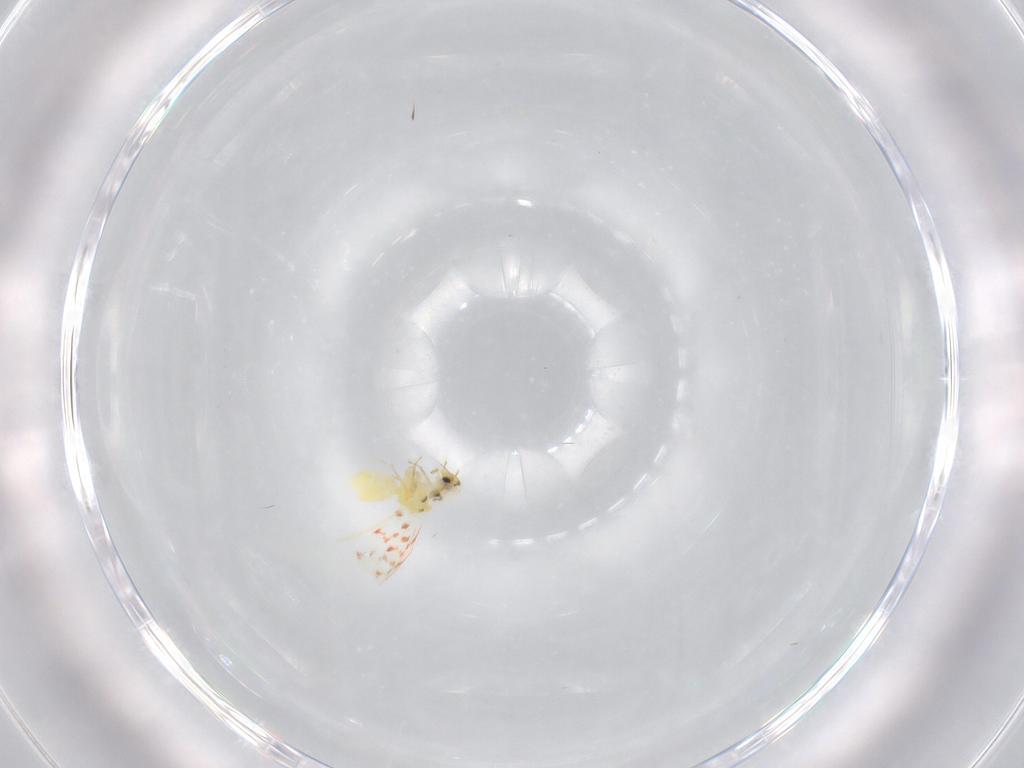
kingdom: Animalia
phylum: Arthropoda
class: Insecta
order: Hemiptera
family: Aleyrodidae
